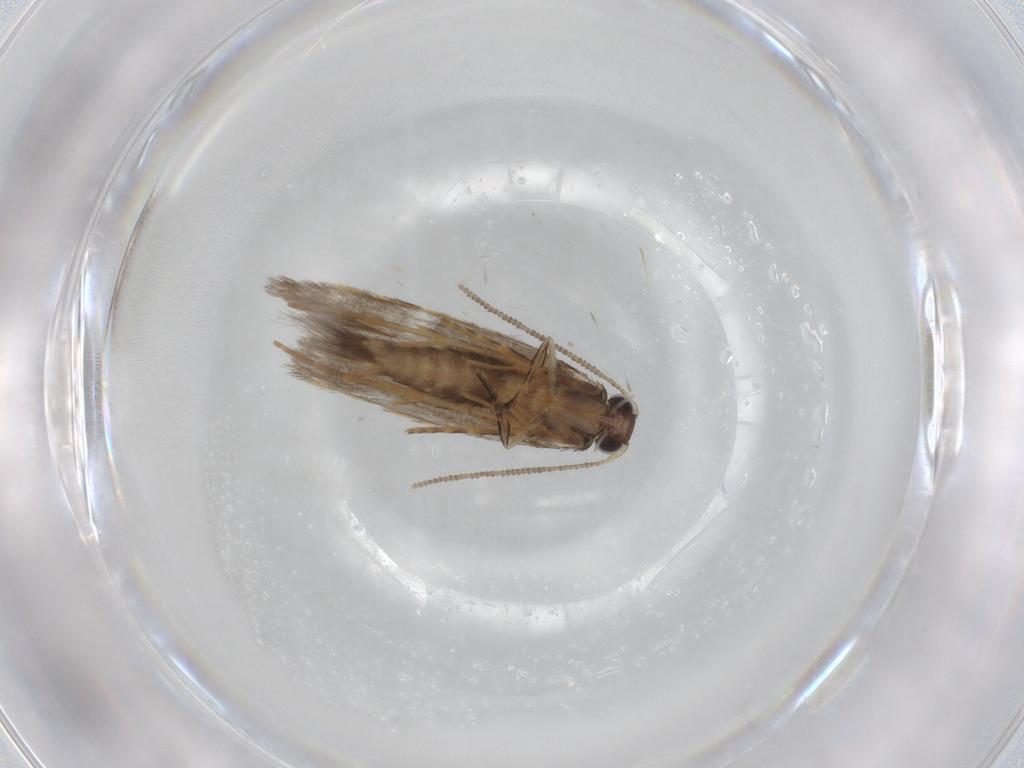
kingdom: Animalia
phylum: Arthropoda
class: Insecta
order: Lepidoptera
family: Tineidae
